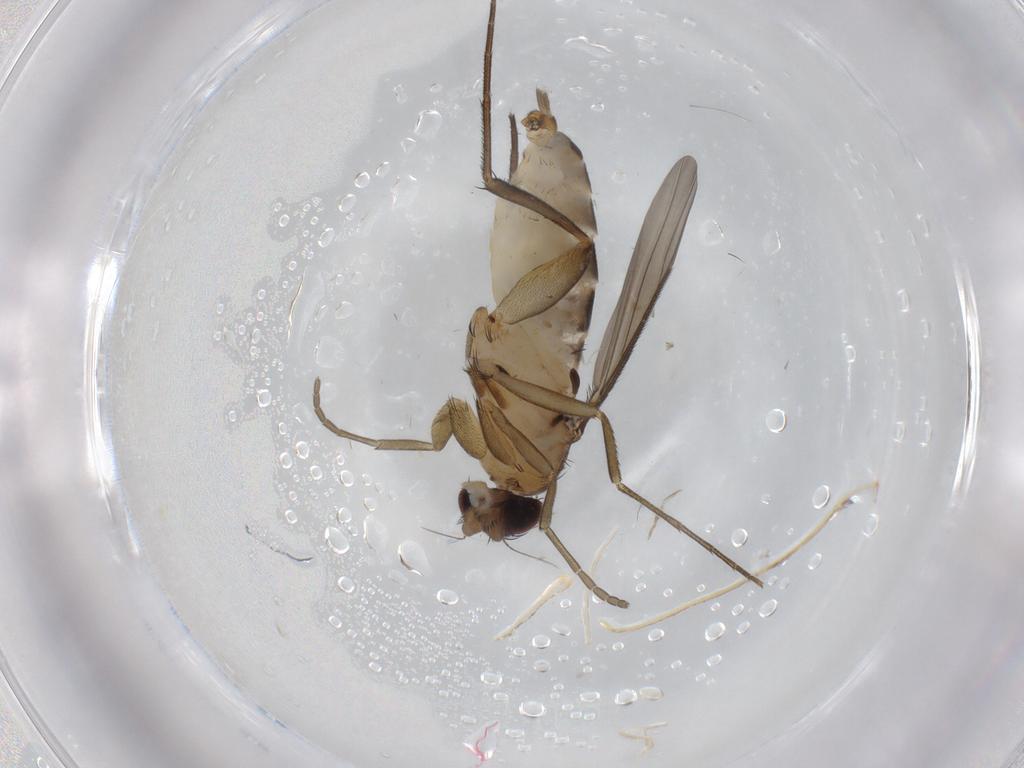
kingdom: Animalia
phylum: Arthropoda
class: Insecta
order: Diptera
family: Phoridae
